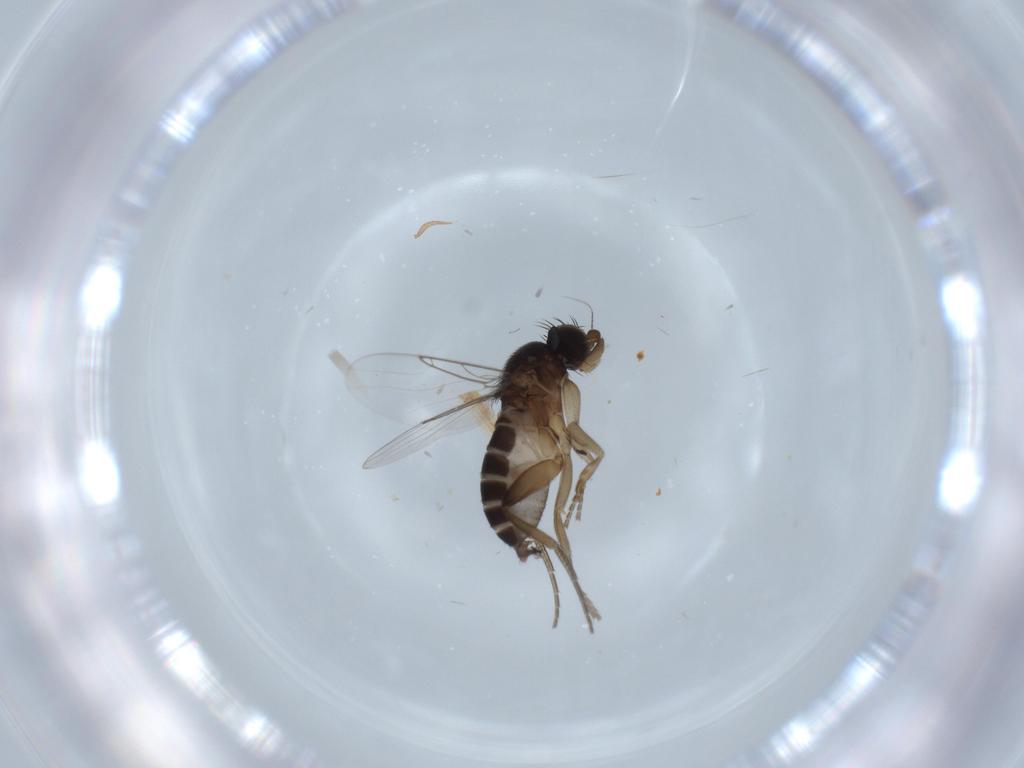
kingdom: Animalia
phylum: Arthropoda
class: Insecta
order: Diptera
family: Phoridae
